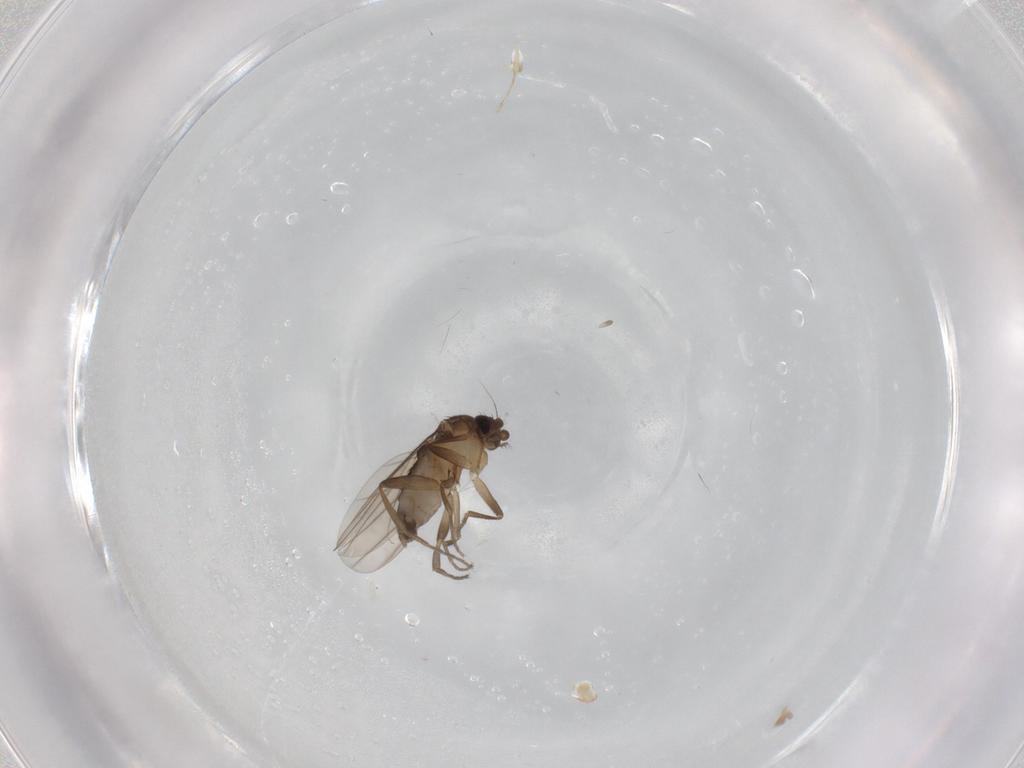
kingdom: Animalia
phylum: Arthropoda
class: Insecta
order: Diptera
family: Phoridae
